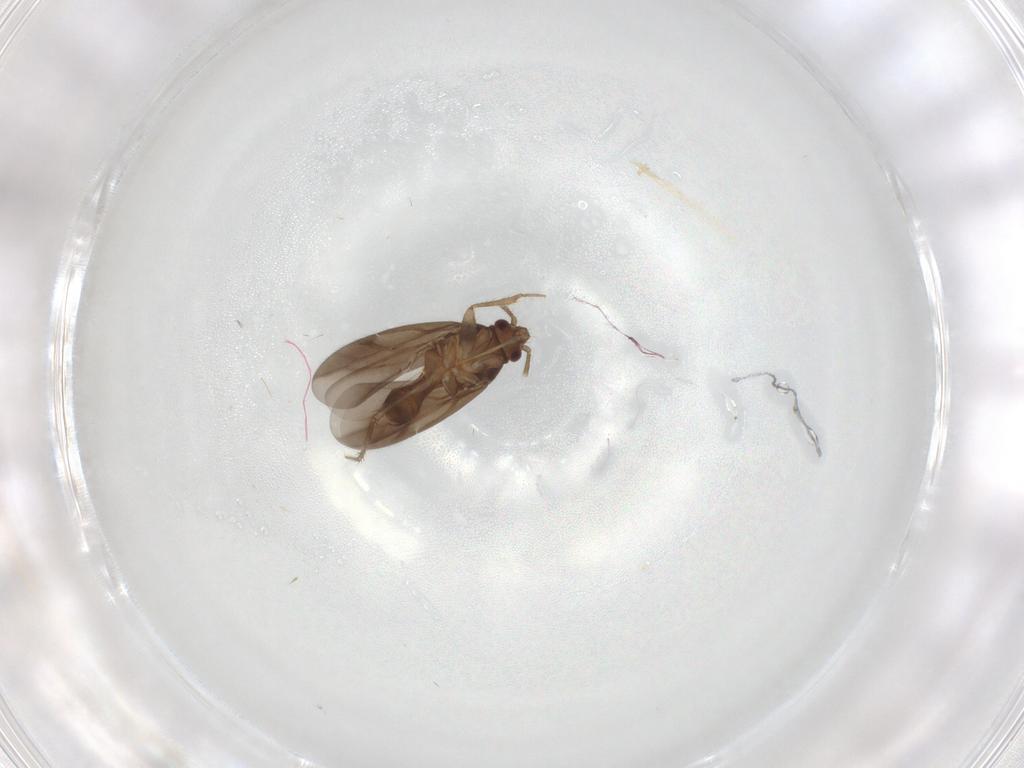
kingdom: Animalia
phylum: Arthropoda
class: Insecta
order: Hemiptera
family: Ceratocombidae
